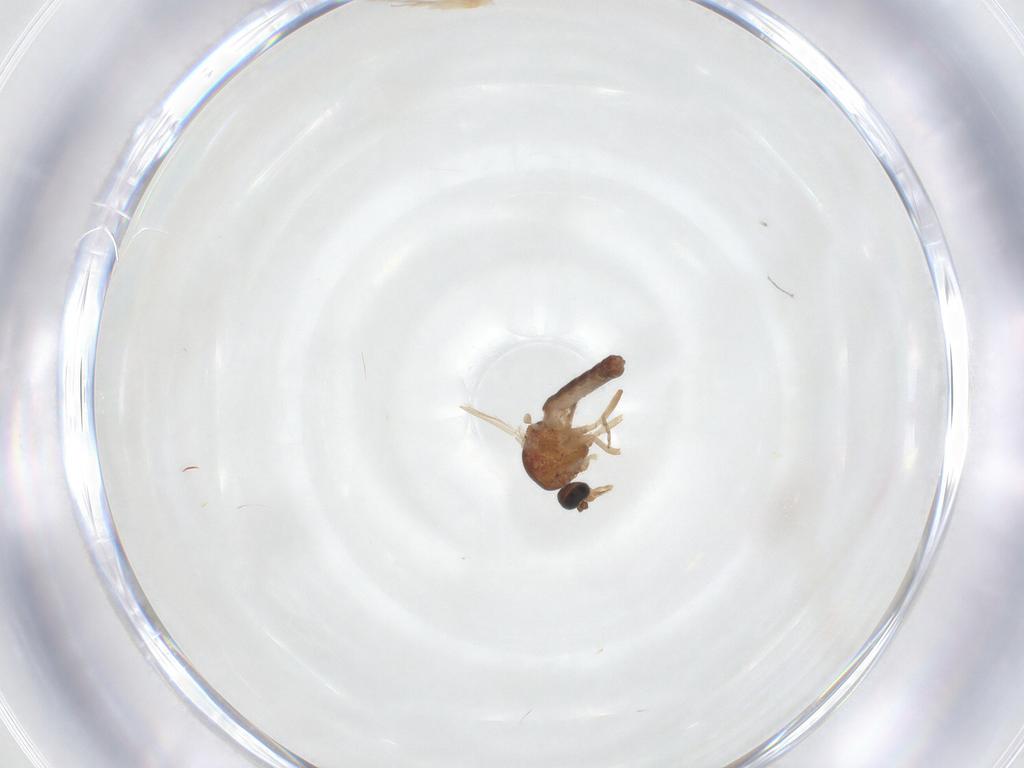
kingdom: Animalia
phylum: Arthropoda
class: Insecta
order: Diptera
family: Ceratopogonidae
